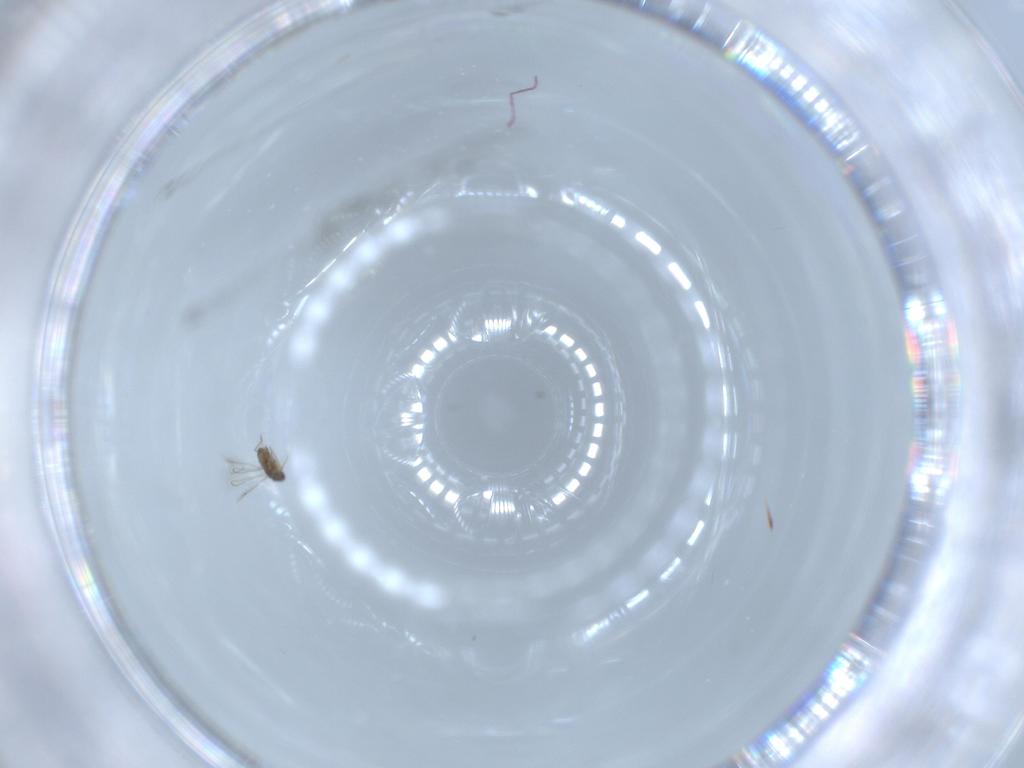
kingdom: Animalia
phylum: Arthropoda
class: Insecta
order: Hymenoptera
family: Mymaridae
